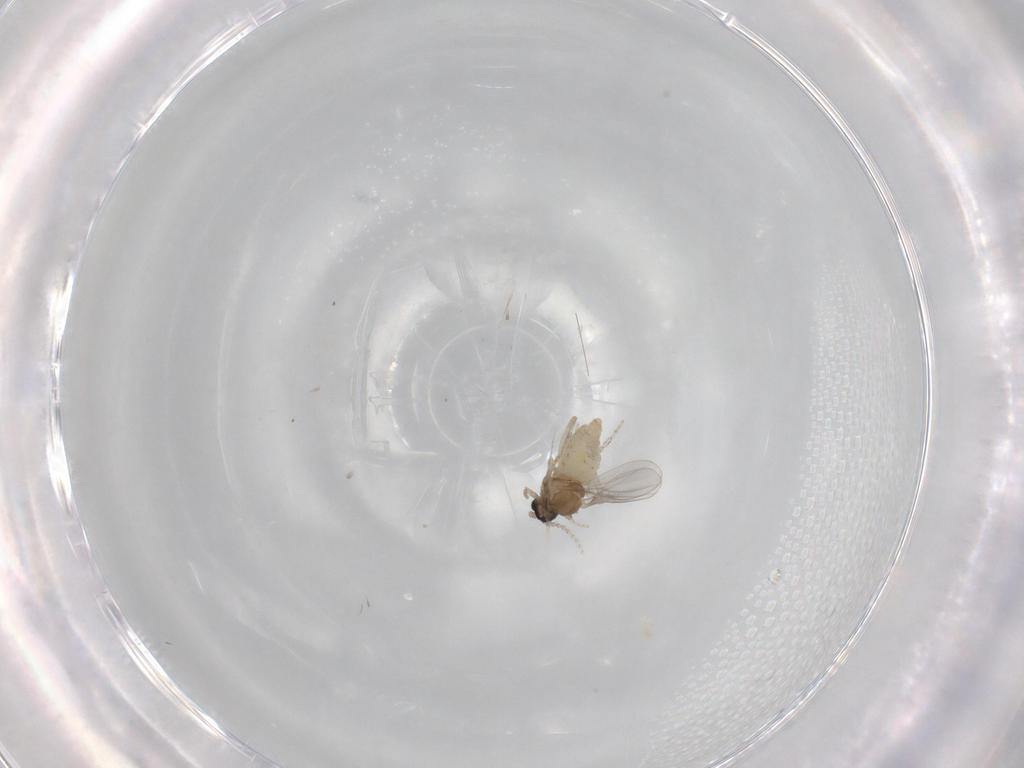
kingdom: Animalia
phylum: Arthropoda
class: Insecta
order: Diptera
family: Cecidomyiidae
